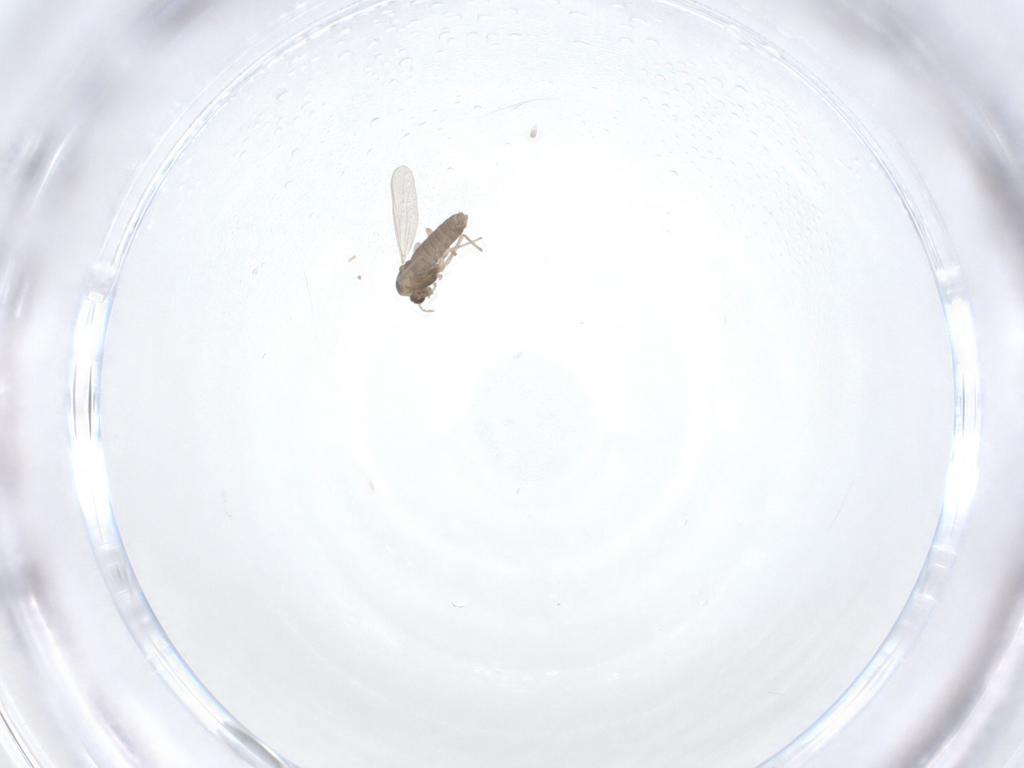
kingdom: Animalia
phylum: Arthropoda
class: Insecta
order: Diptera
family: Chironomidae
